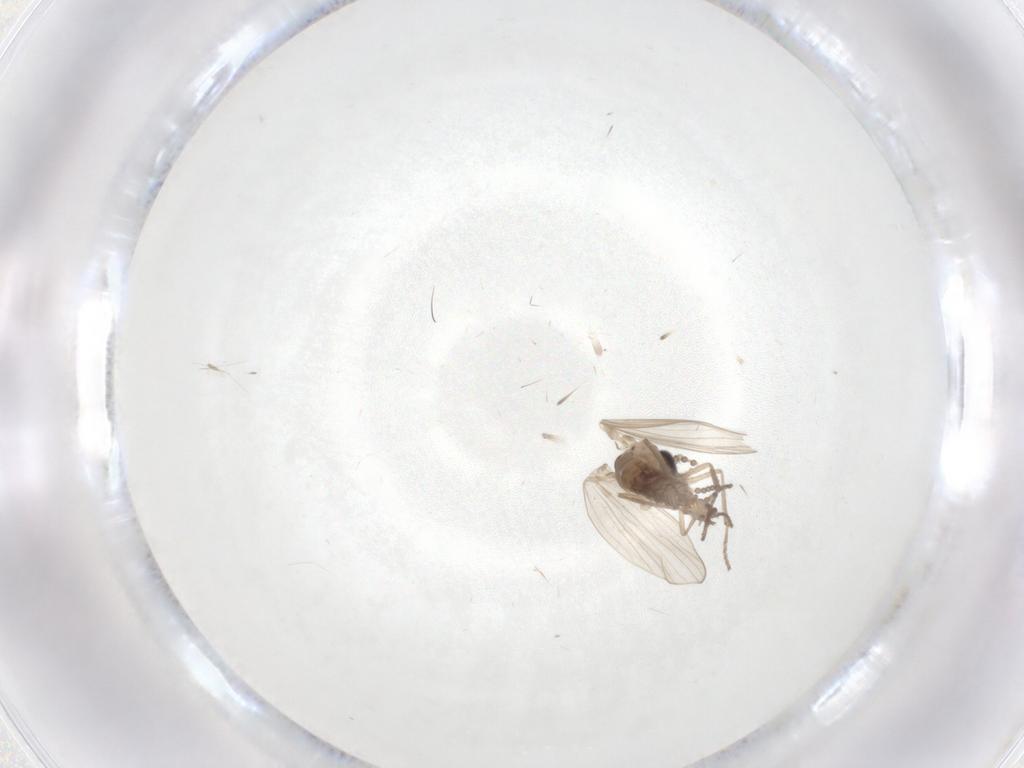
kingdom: Animalia
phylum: Arthropoda
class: Insecta
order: Diptera
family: Psychodidae
